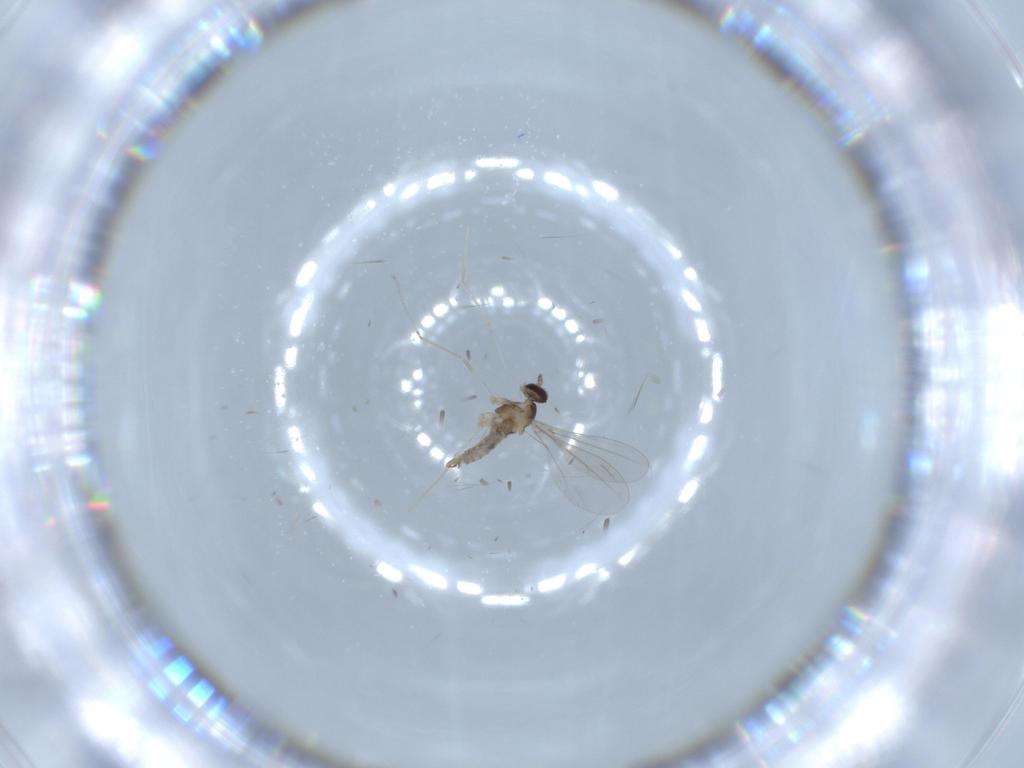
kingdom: Animalia
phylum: Arthropoda
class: Insecta
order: Diptera
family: Cecidomyiidae
